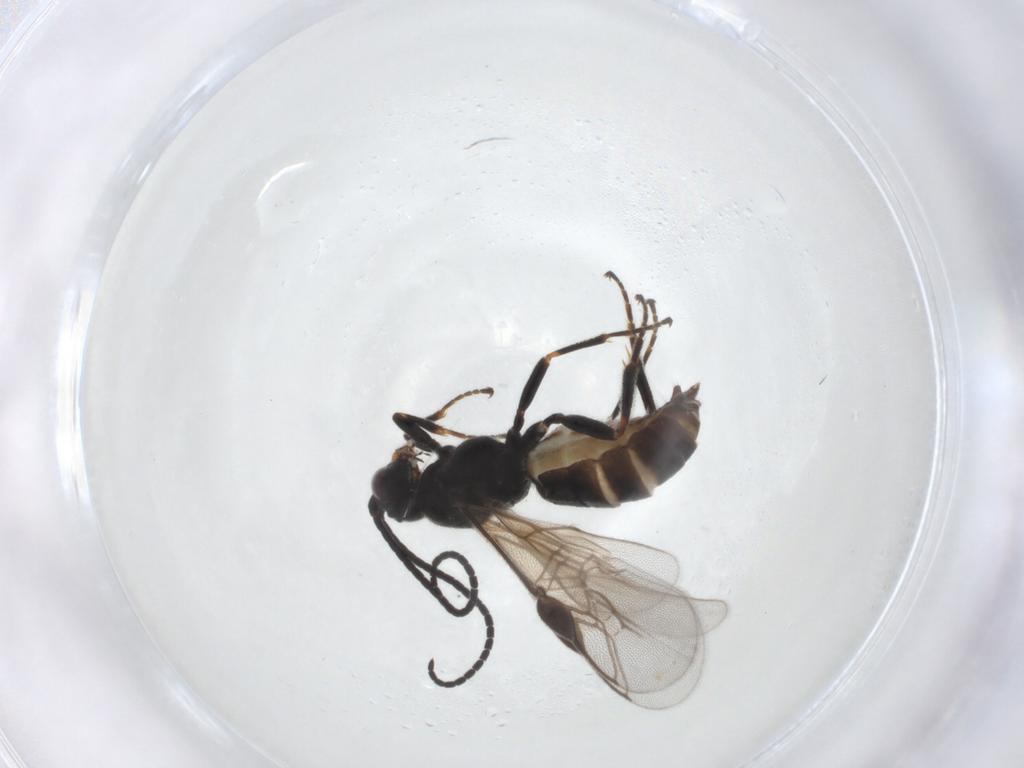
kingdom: Animalia
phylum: Arthropoda
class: Insecta
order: Hymenoptera
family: Braconidae
